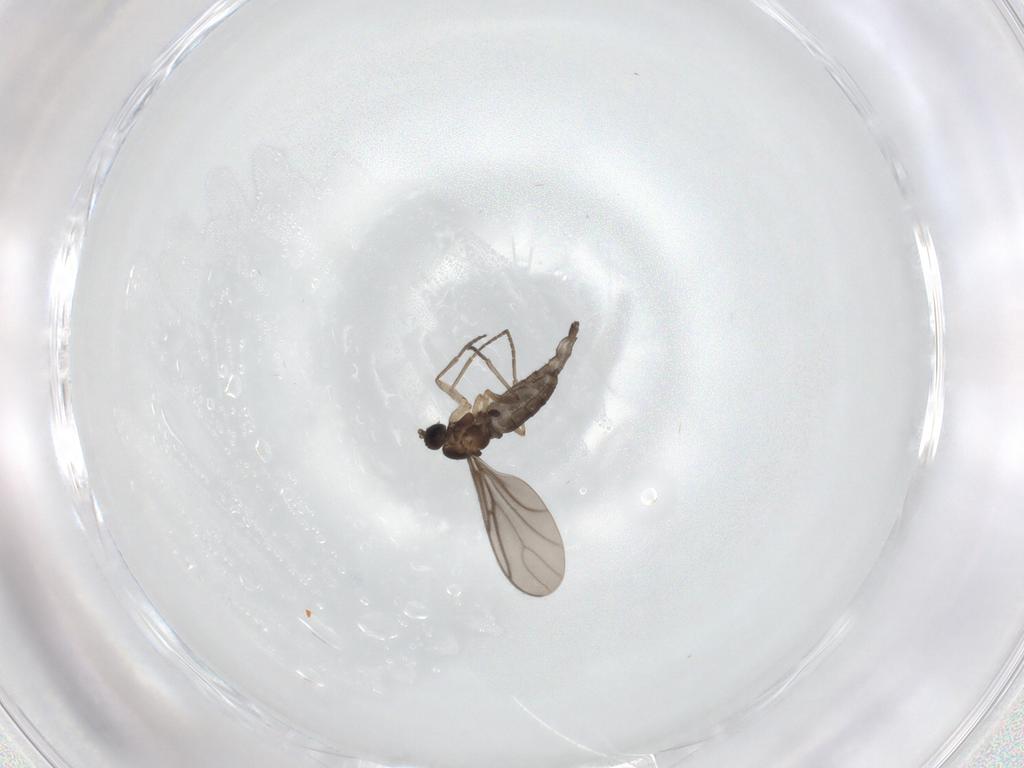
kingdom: Animalia
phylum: Arthropoda
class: Insecta
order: Diptera
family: Sciaridae
